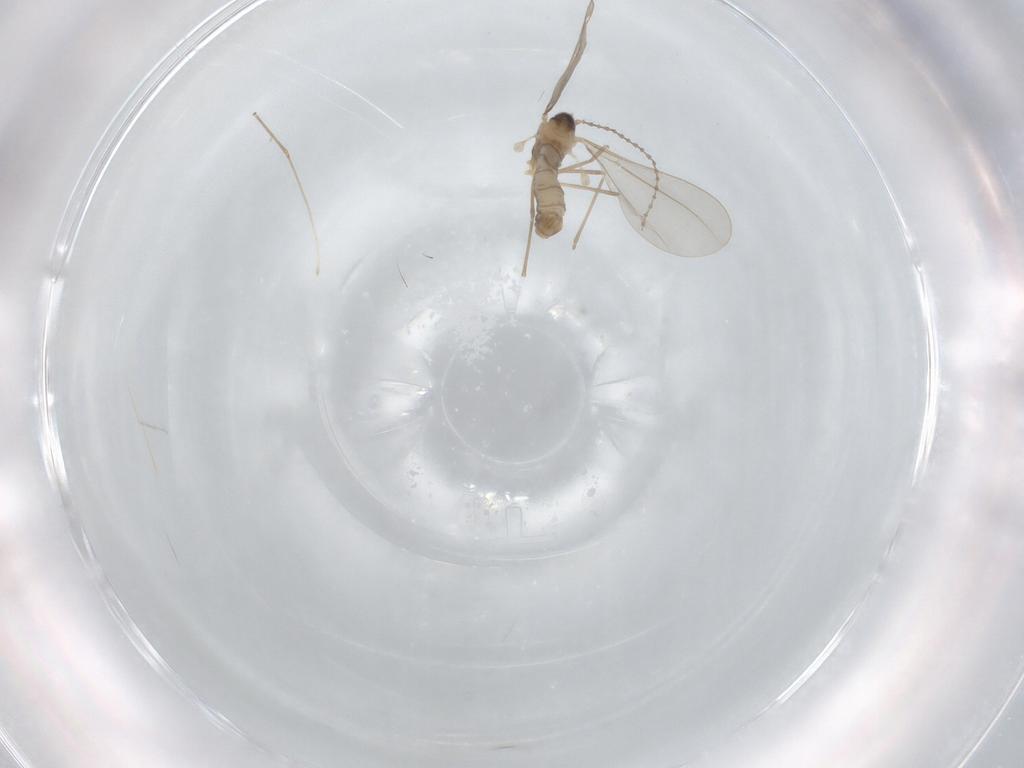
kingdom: Animalia
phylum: Arthropoda
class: Insecta
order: Diptera
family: Cecidomyiidae
